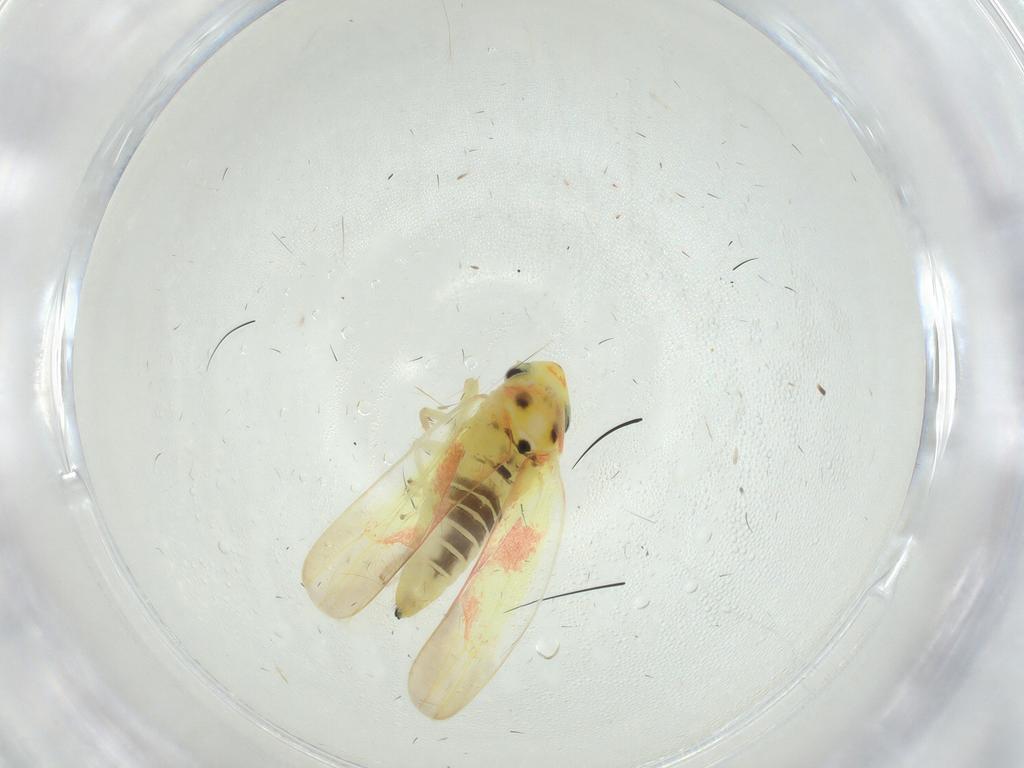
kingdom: Animalia
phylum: Arthropoda
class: Insecta
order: Hemiptera
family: Cicadellidae
